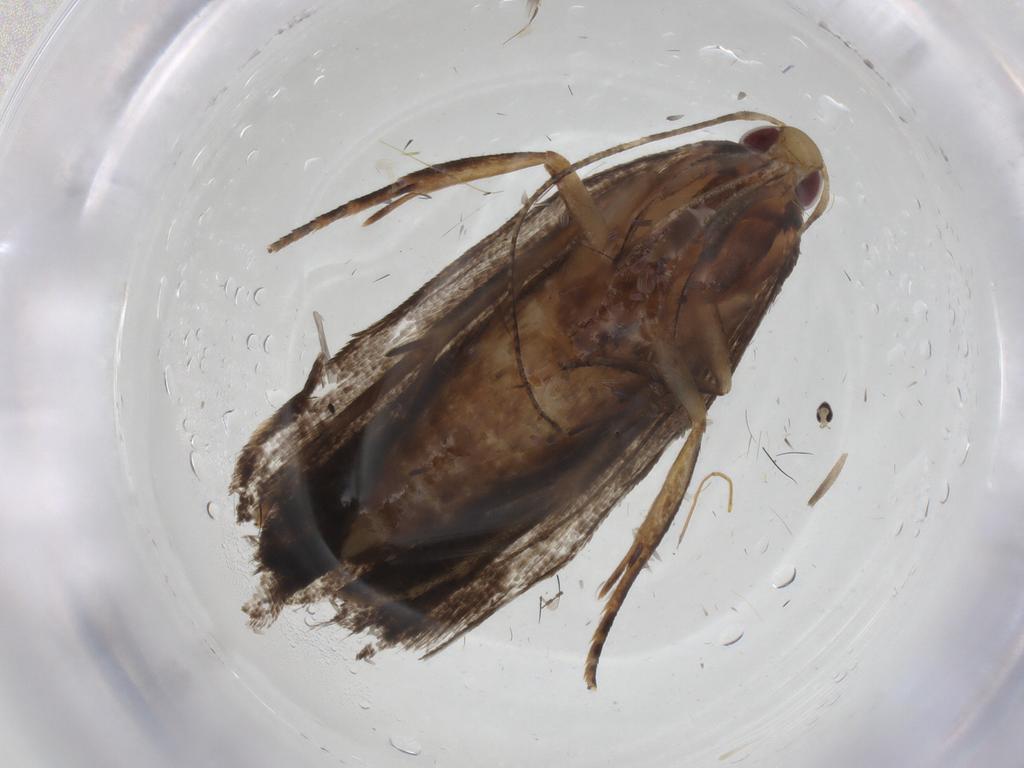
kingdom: Animalia
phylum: Arthropoda
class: Insecta
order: Lepidoptera
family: Gelechiidae
